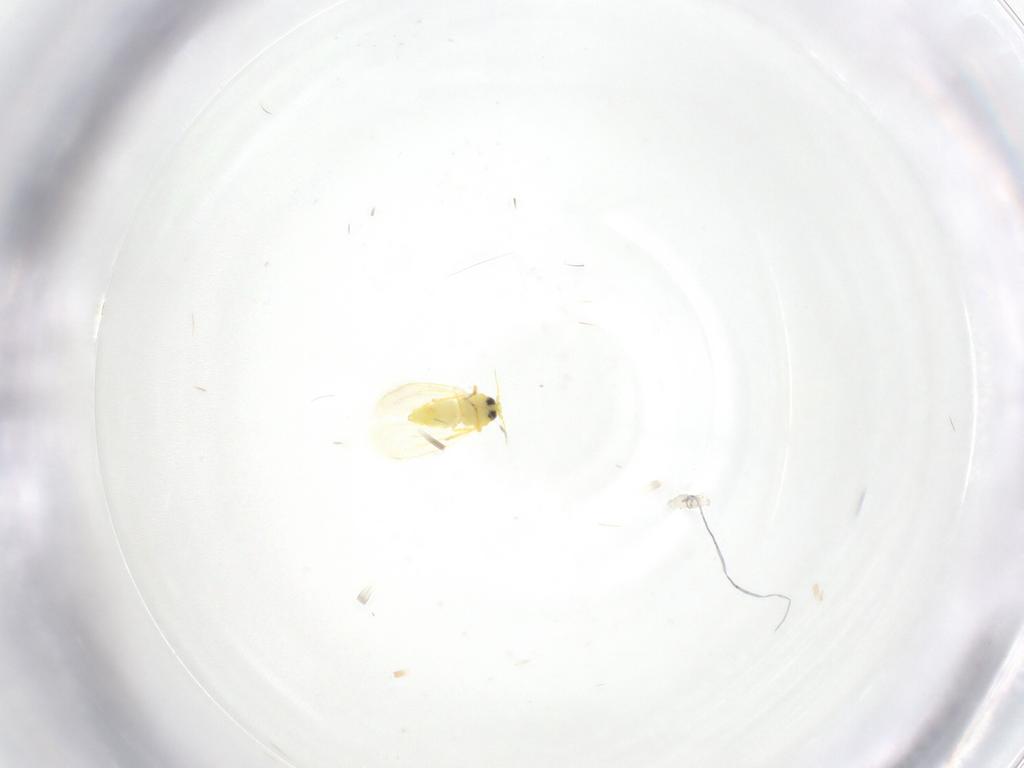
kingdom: Animalia
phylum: Arthropoda
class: Insecta
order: Hemiptera
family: Aleyrodidae
